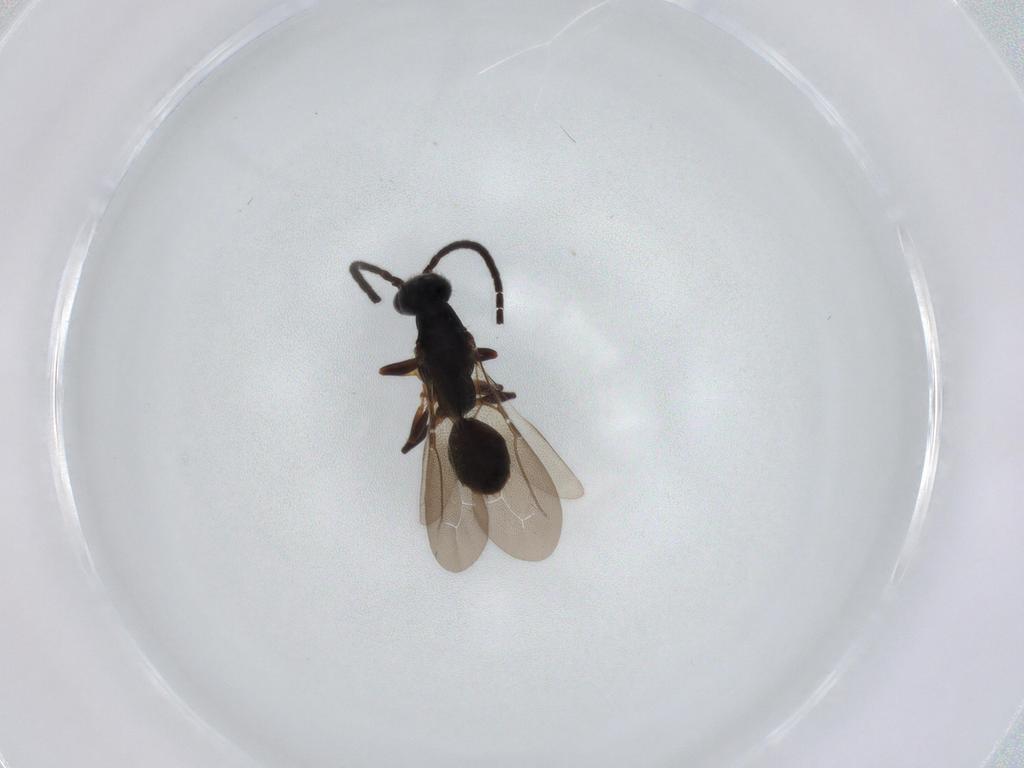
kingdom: Animalia
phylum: Arthropoda
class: Insecta
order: Hymenoptera
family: Bethylidae
